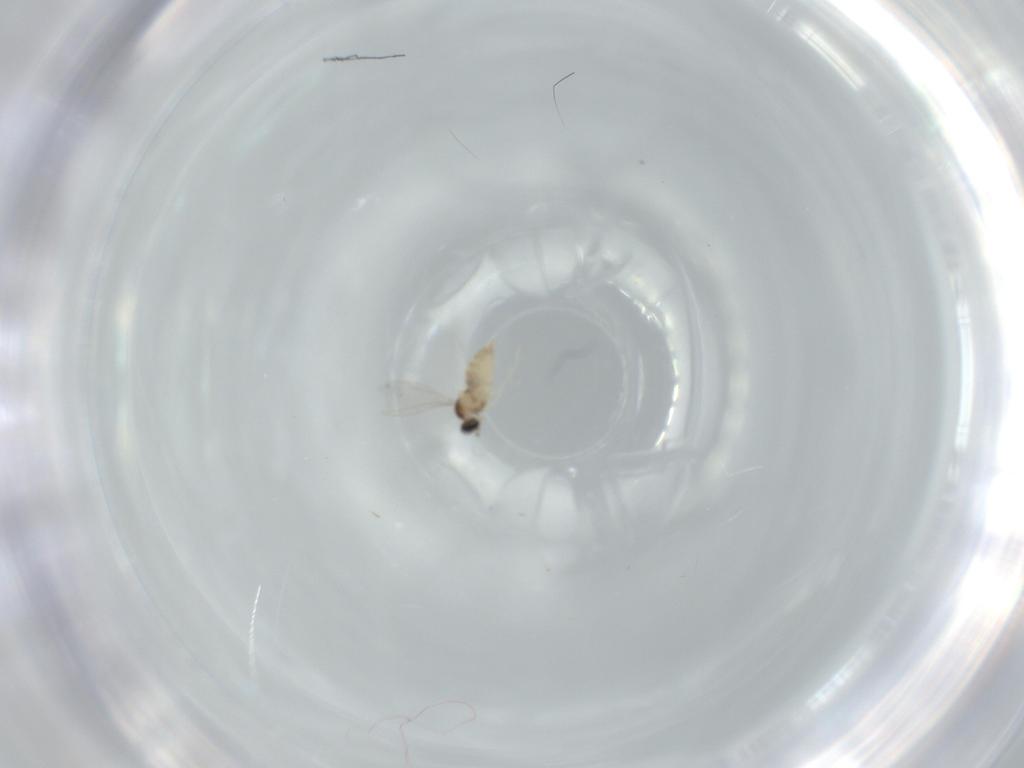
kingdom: Animalia
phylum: Arthropoda
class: Insecta
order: Diptera
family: Cecidomyiidae
